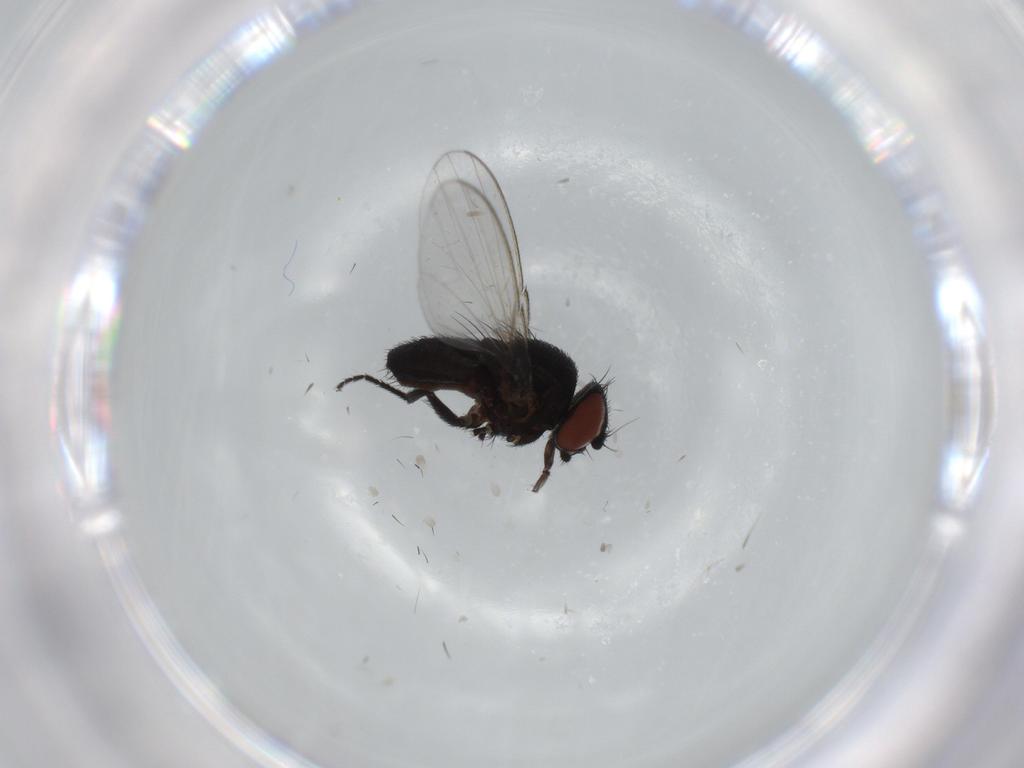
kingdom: Animalia
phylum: Arthropoda
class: Insecta
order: Diptera
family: Milichiidae
